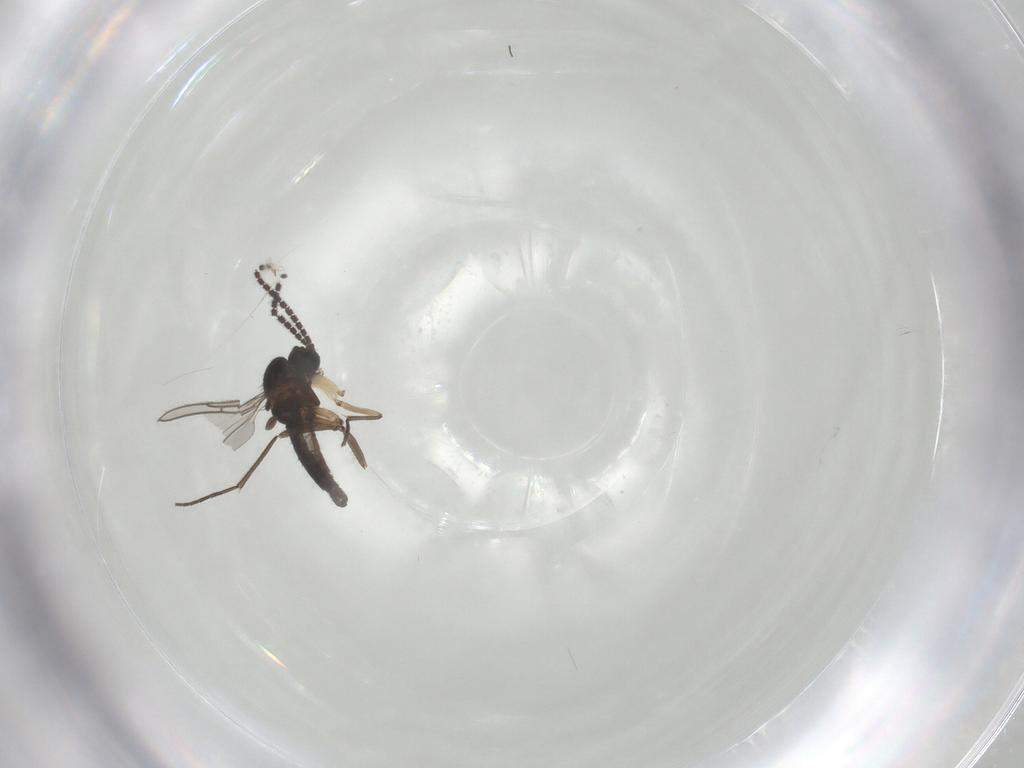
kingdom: Animalia
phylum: Arthropoda
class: Insecta
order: Diptera
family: Sciaridae
